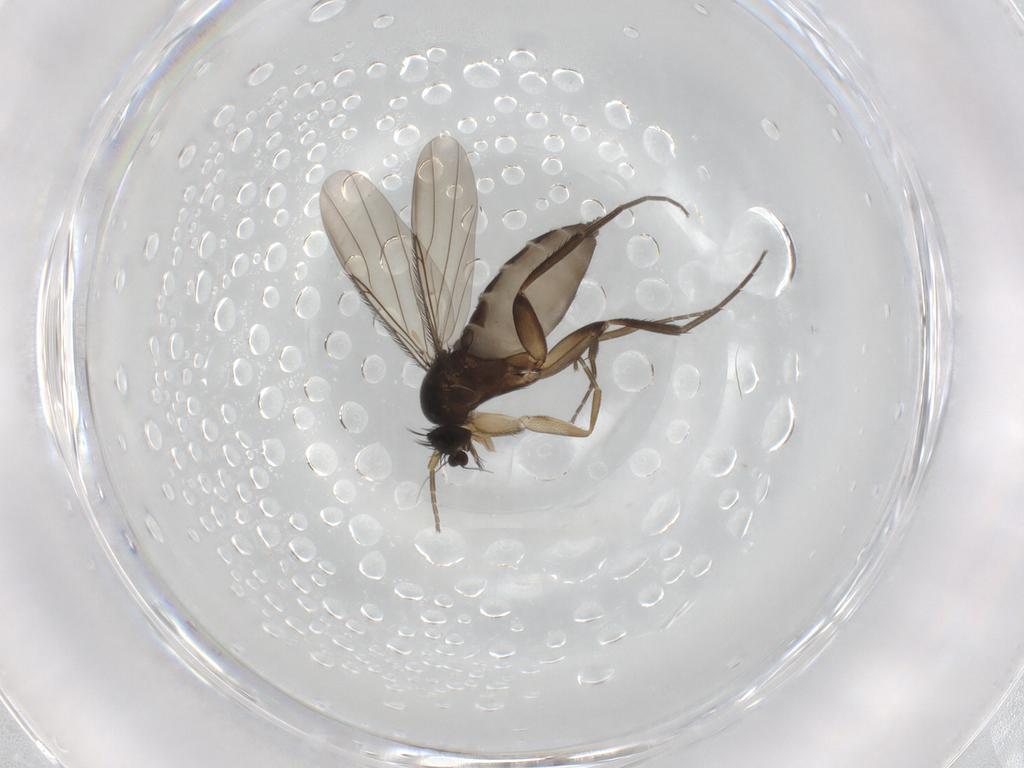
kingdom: Animalia
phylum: Arthropoda
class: Insecta
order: Diptera
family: Phoridae
